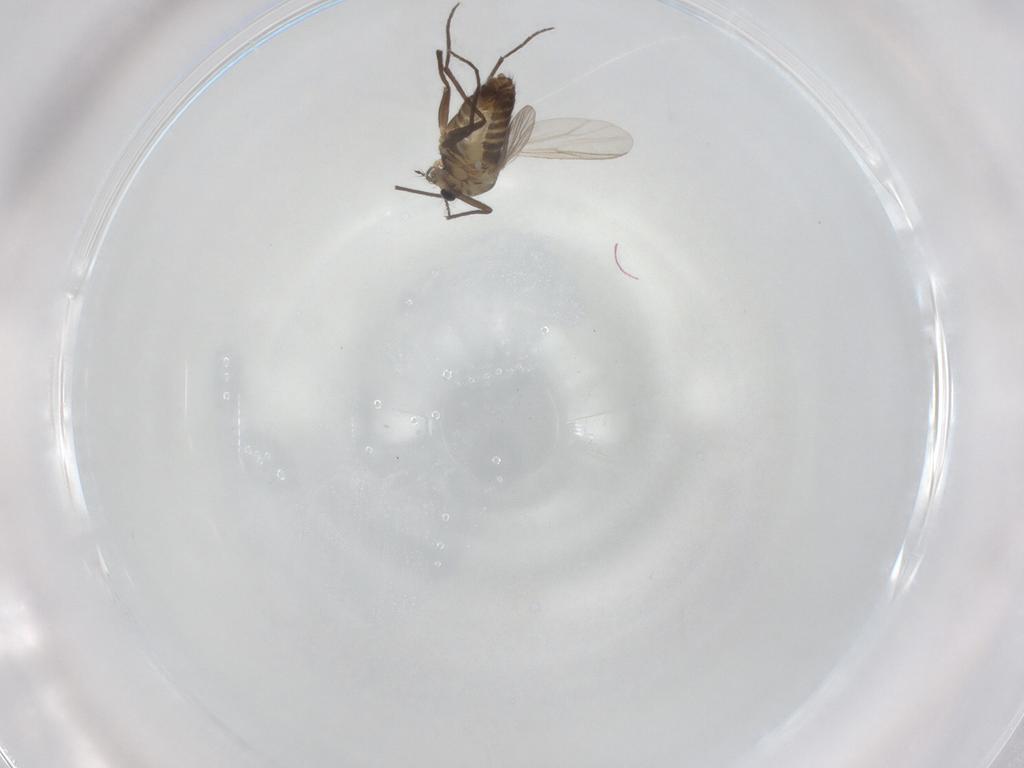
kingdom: Animalia
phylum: Arthropoda
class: Insecta
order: Diptera
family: Chironomidae
